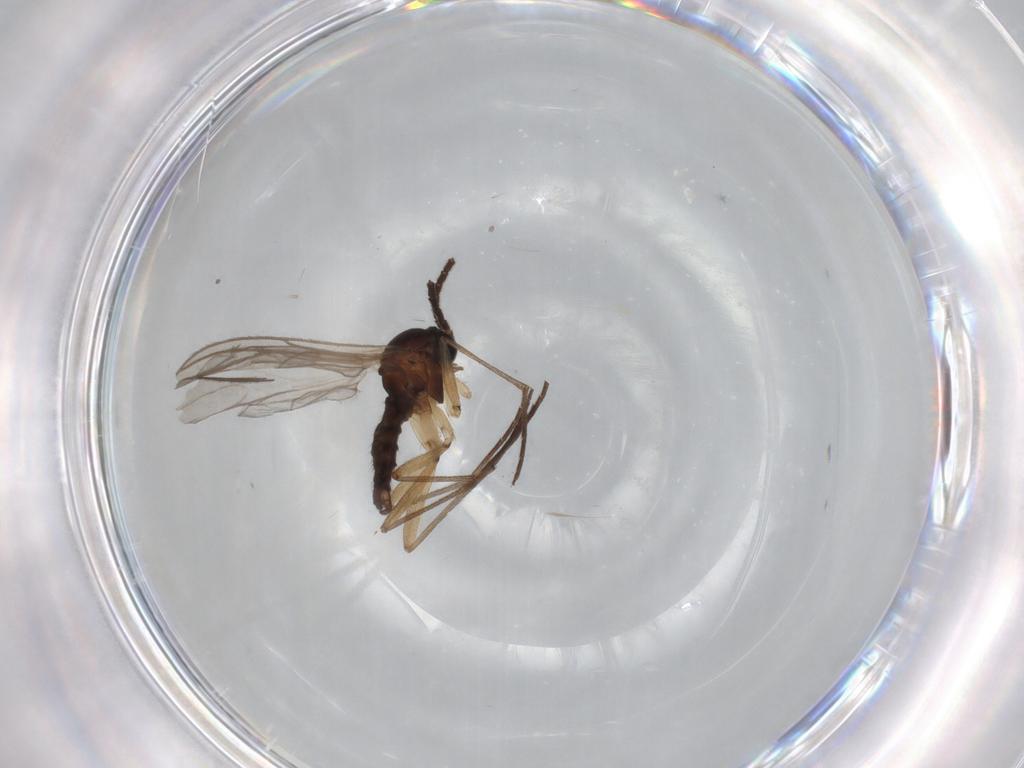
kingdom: Animalia
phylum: Arthropoda
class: Insecta
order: Diptera
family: Sciaridae
